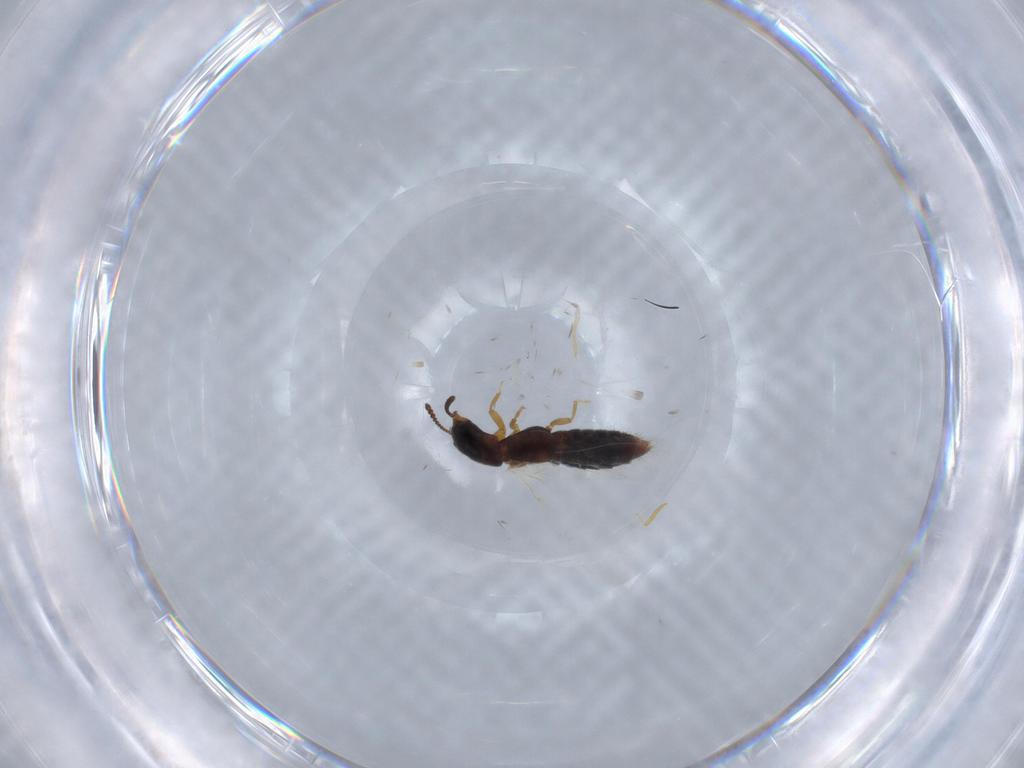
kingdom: Animalia
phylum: Arthropoda
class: Insecta
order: Coleoptera
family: Staphylinidae
